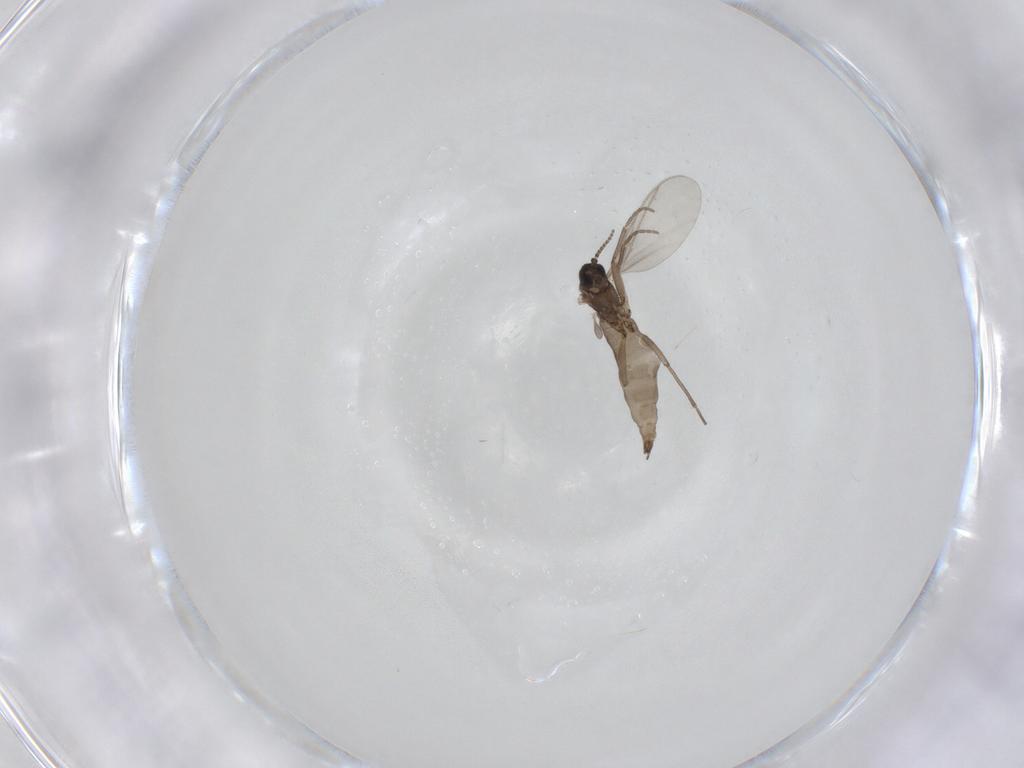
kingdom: Animalia
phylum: Arthropoda
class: Insecta
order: Diptera
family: Sciaridae
